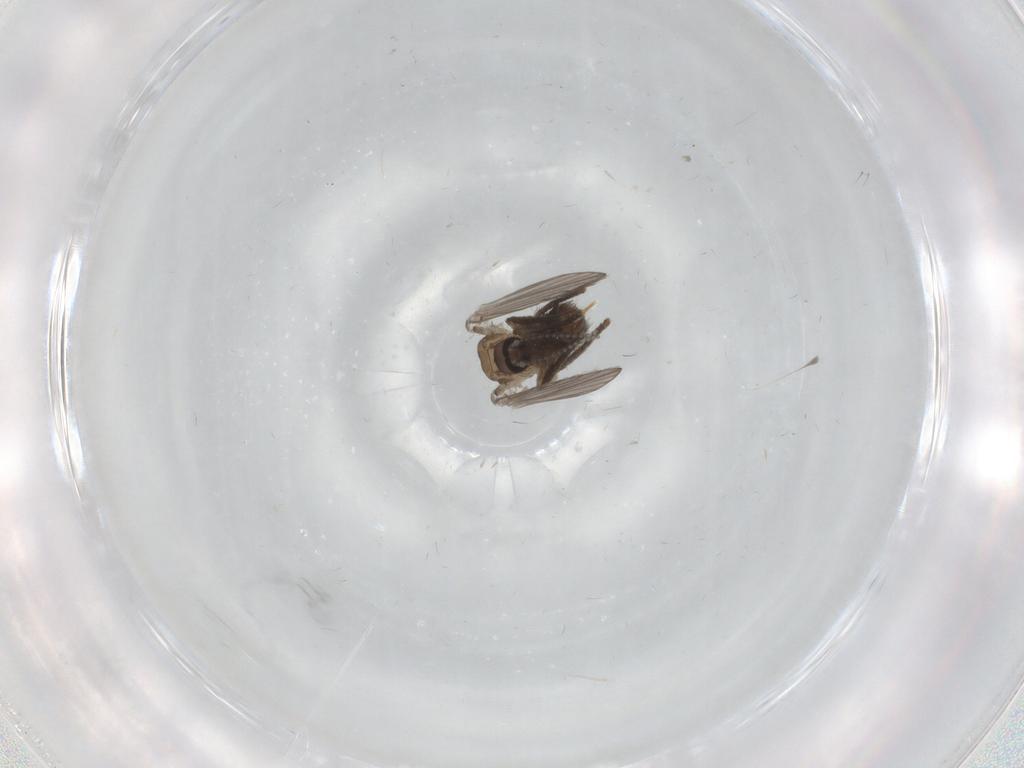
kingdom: Animalia
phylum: Arthropoda
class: Insecta
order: Diptera
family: Psychodidae
